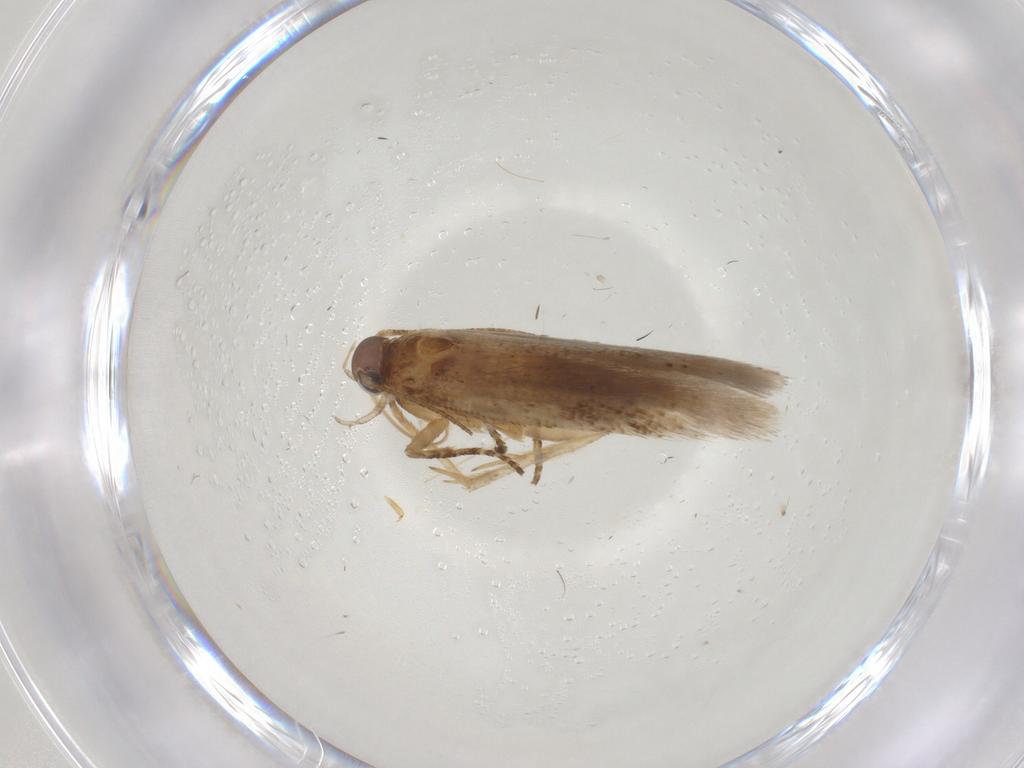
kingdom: Animalia
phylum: Arthropoda
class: Insecta
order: Lepidoptera
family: Gelechiidae
